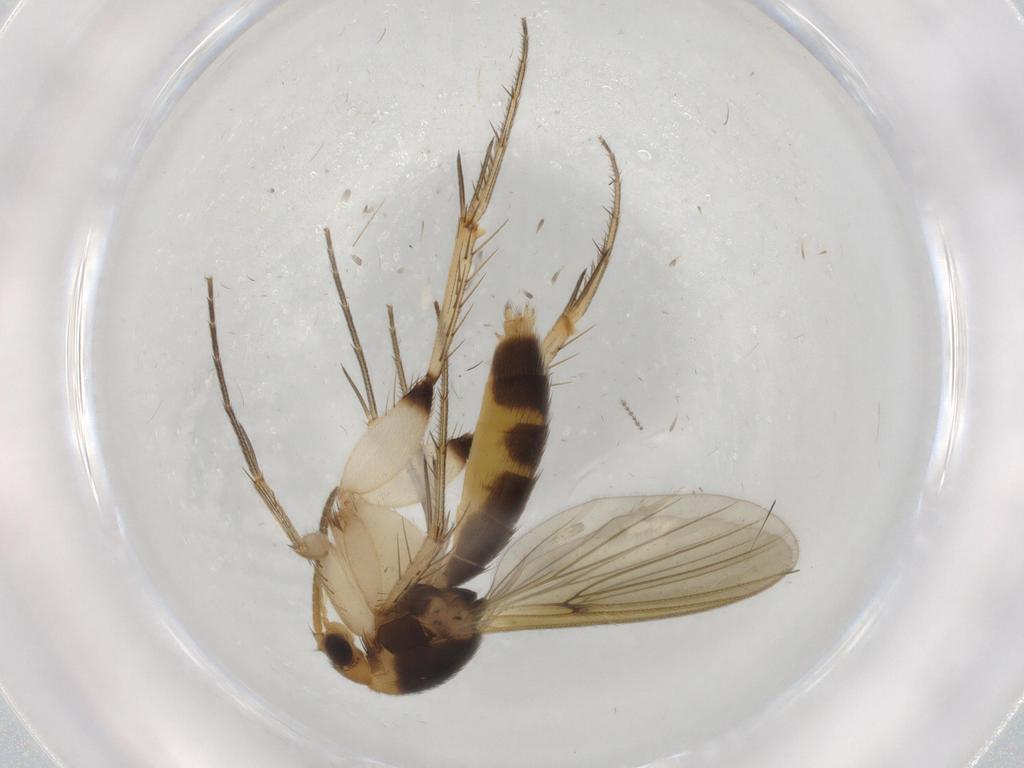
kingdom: Animalia
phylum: Arthropoda
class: Insecta
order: Diptera
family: Mycetophilidae
